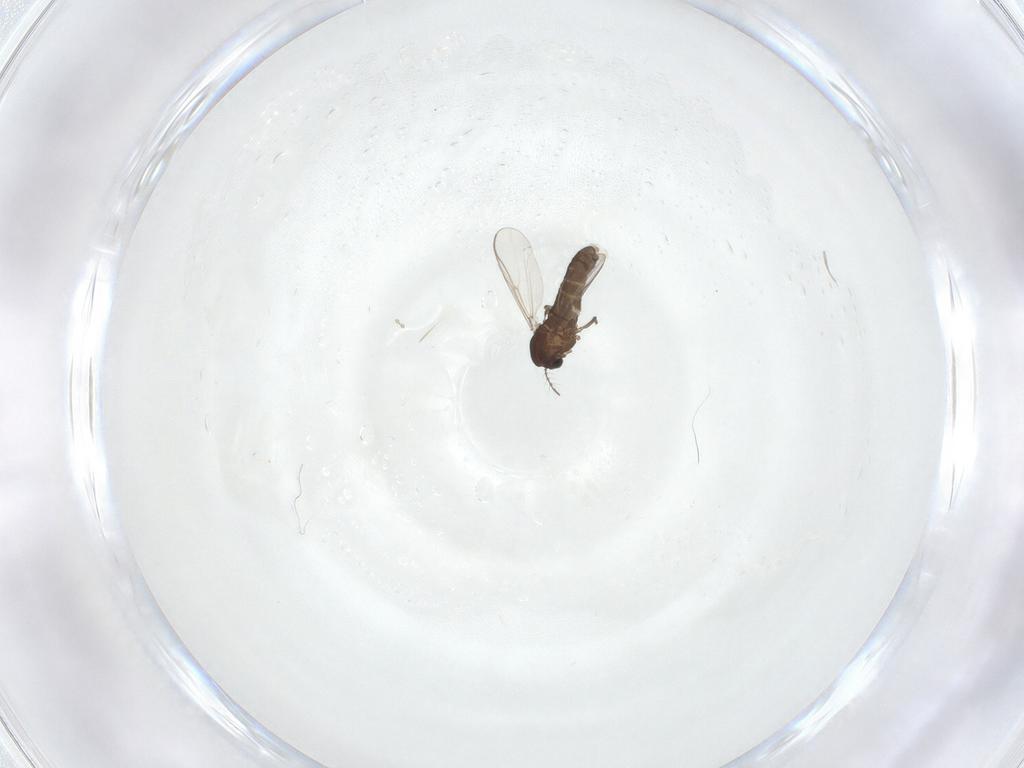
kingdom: Animalia
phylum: Arthropoda
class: Insecta
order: Diptera
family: Chironomidae
